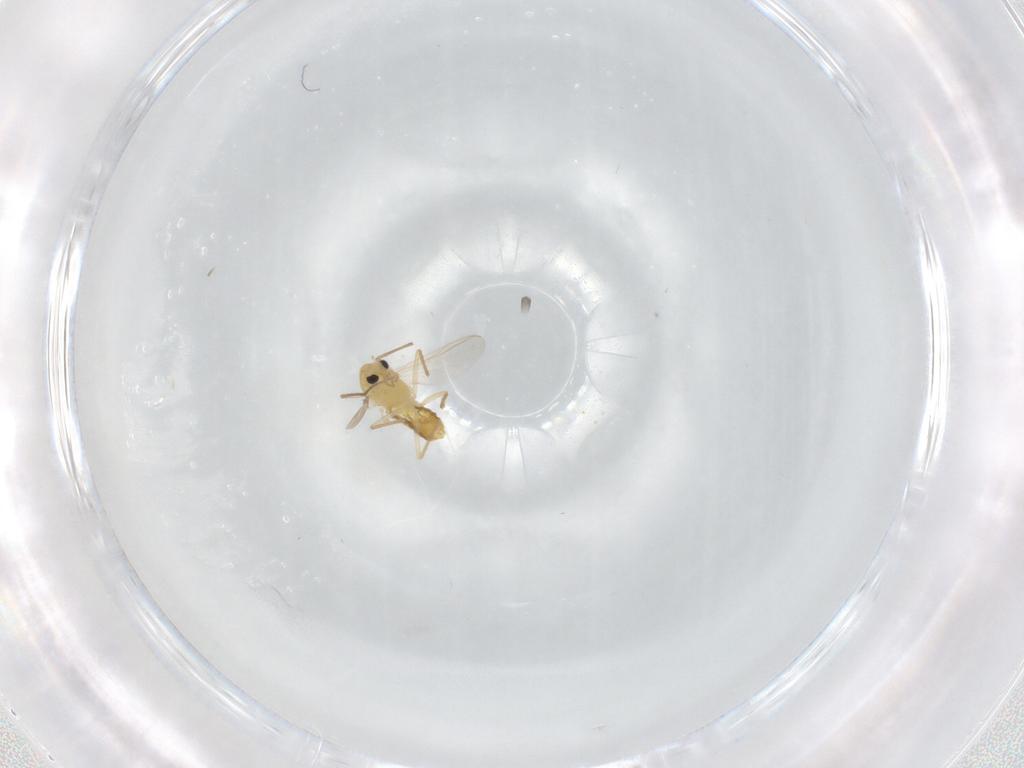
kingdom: Animalia
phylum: Arthropoda
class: Insecta
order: Diptera
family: Chironomidae
